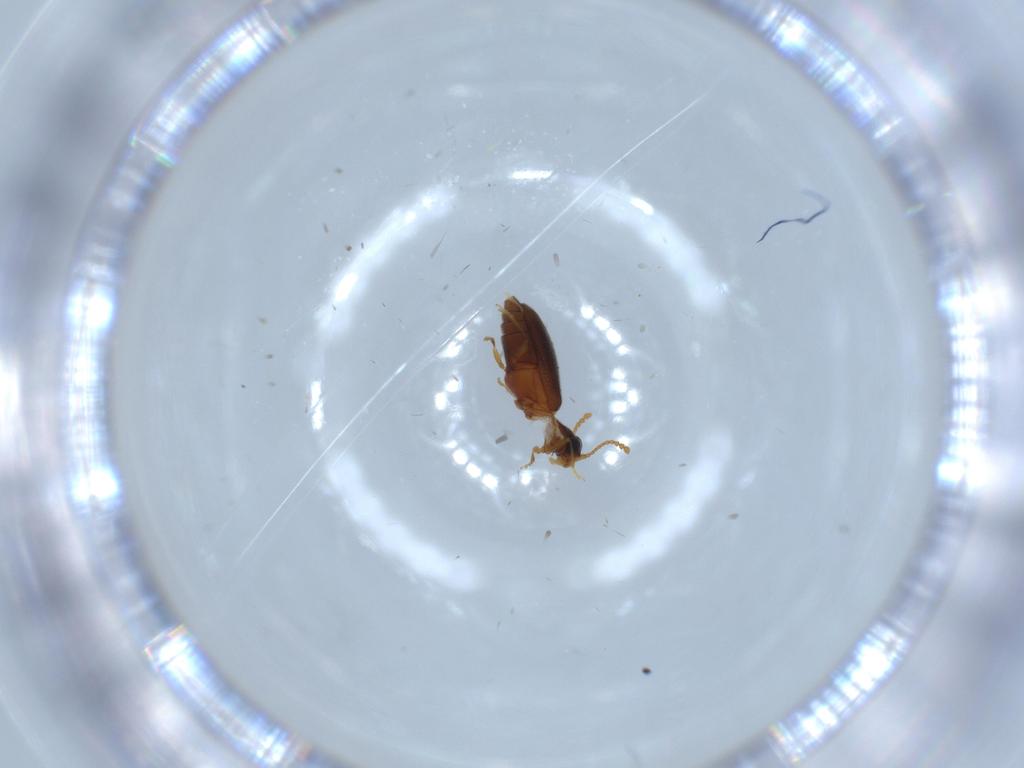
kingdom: Animalia
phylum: Arthropoda
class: Insecta
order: Coleoptera
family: Aderidae
